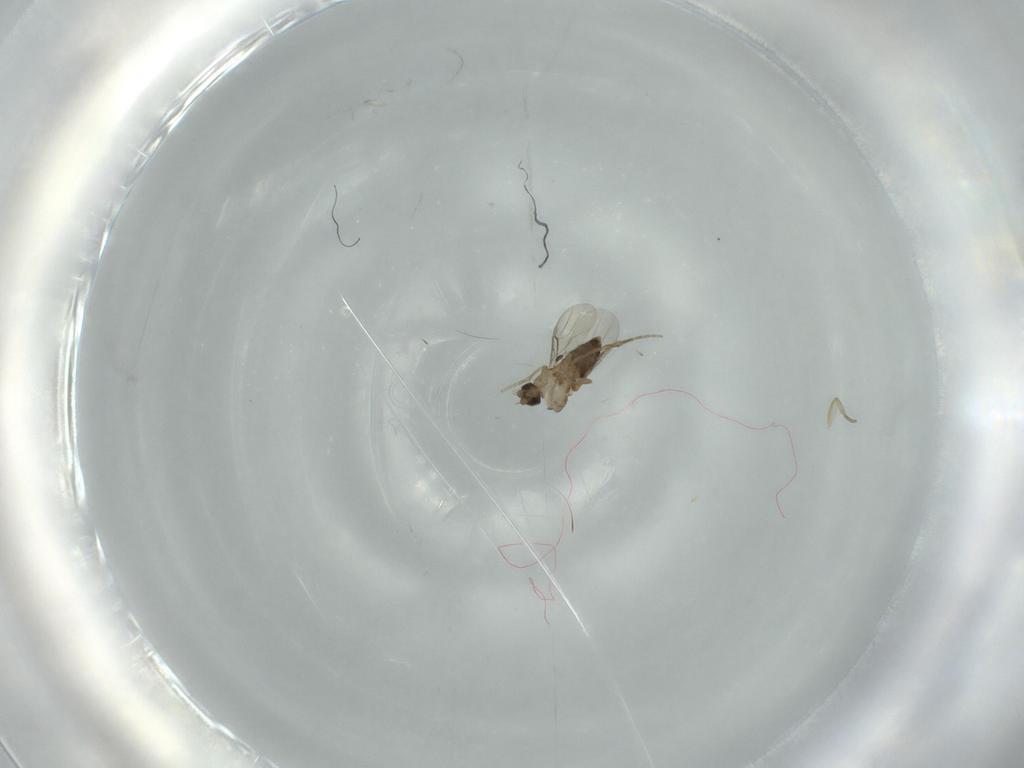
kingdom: Animalia
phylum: Arthropoda
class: Insecta
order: Diptera
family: Phoridae
